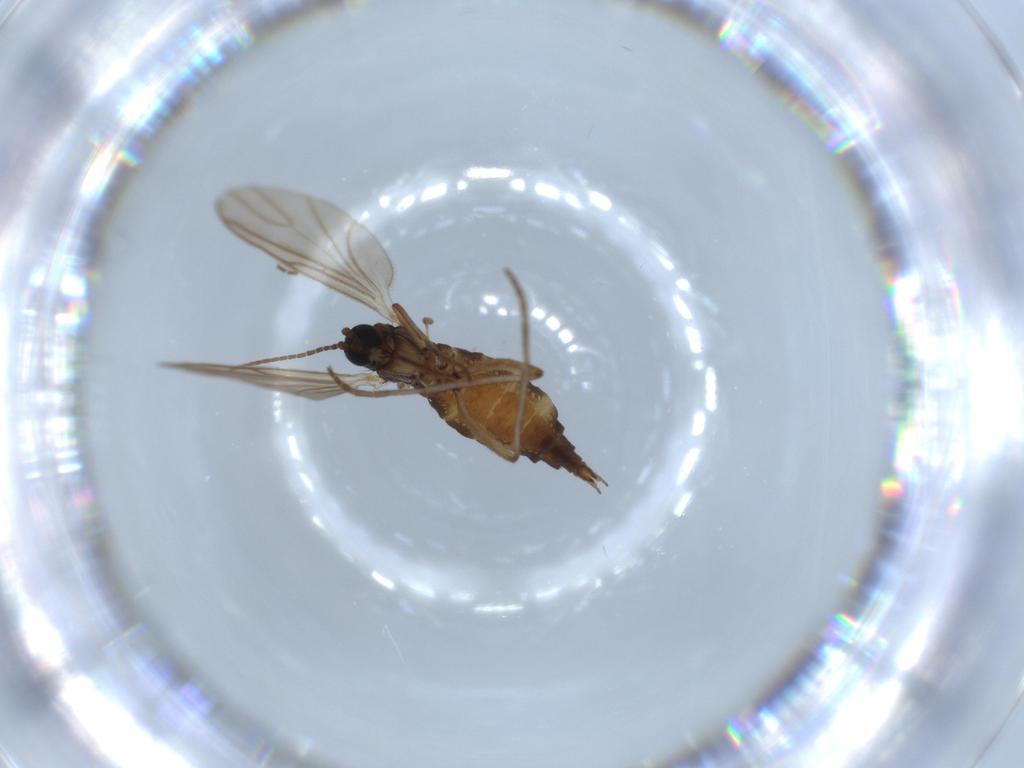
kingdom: Animalia
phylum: Arthropoda
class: Insecta
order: Diptera
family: Sciaridae
